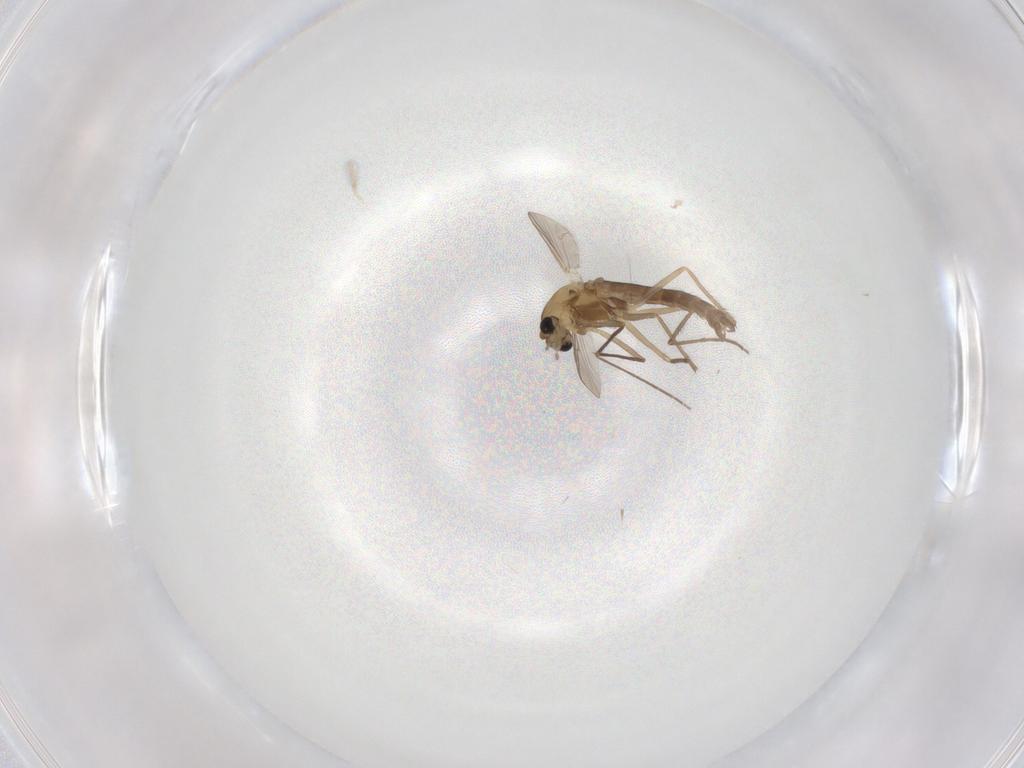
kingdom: Animalia
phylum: Arthropoda
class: Insecta
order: Diptera
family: Chironomidae
